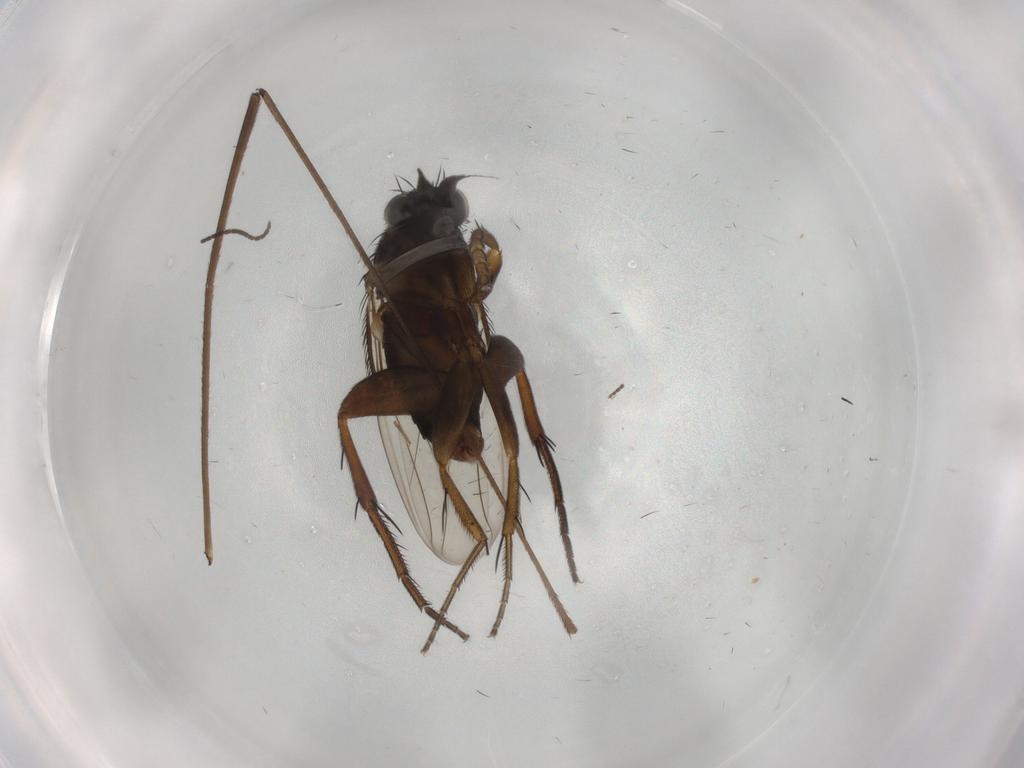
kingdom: Animalia
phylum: Arthropoda
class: Insecta
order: Diptera
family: Limoniidae
